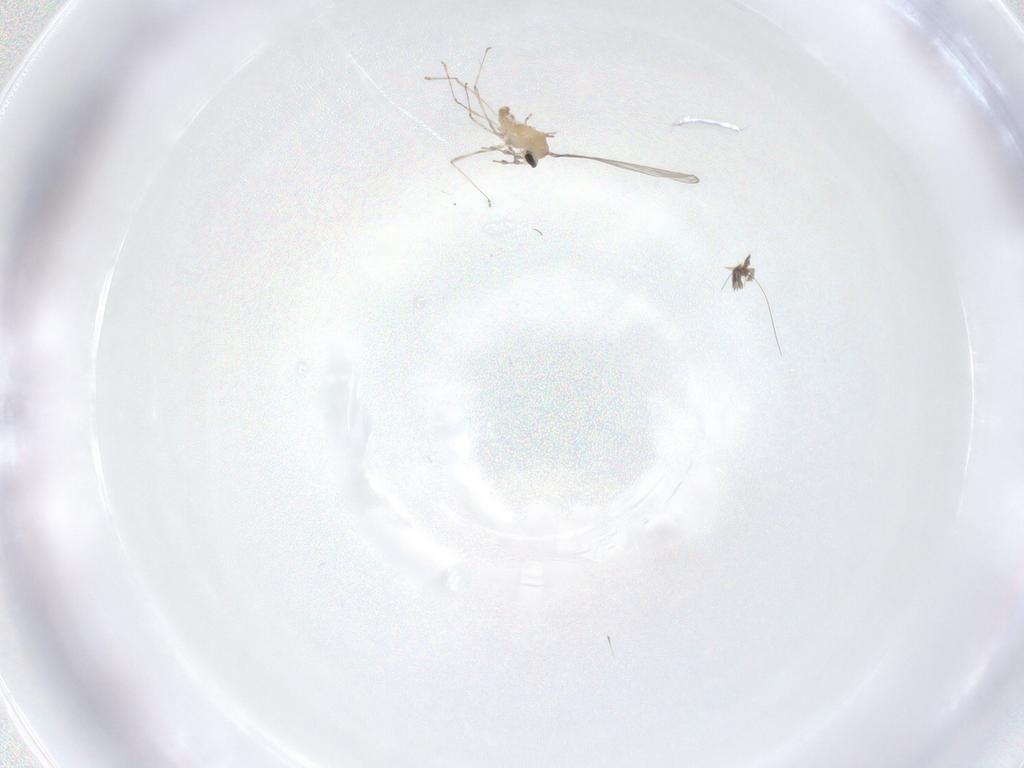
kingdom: Animalia
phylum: Arthropoda
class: Insecta
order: Diptera
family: Cecidomyiidae
